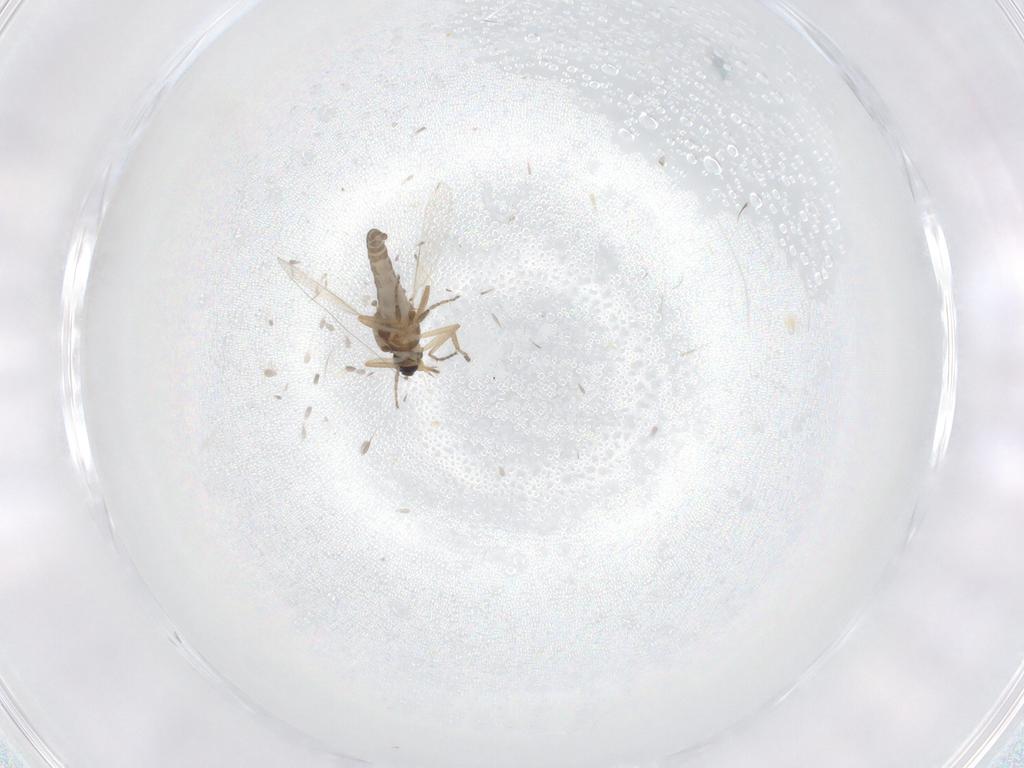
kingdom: Animalia
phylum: Arthropoda
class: Insecta
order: Diptera
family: Ceratopogonidae
